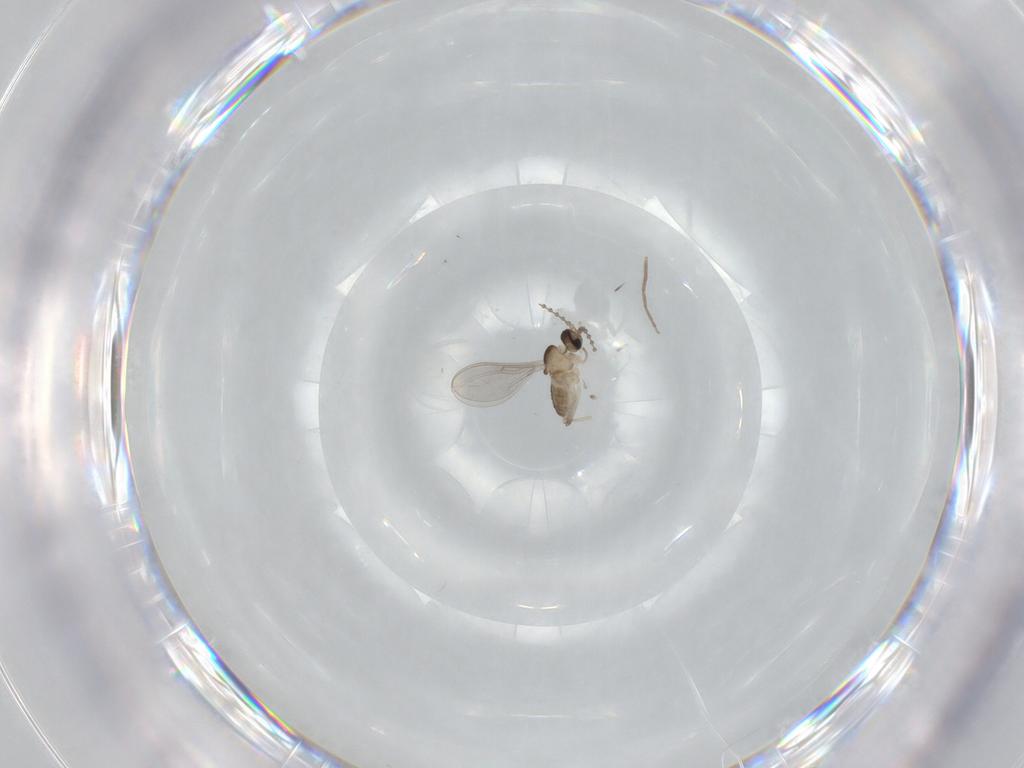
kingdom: Animalia
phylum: Arthropoda
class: Insecta
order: Diptera
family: Cecidomyiidae
